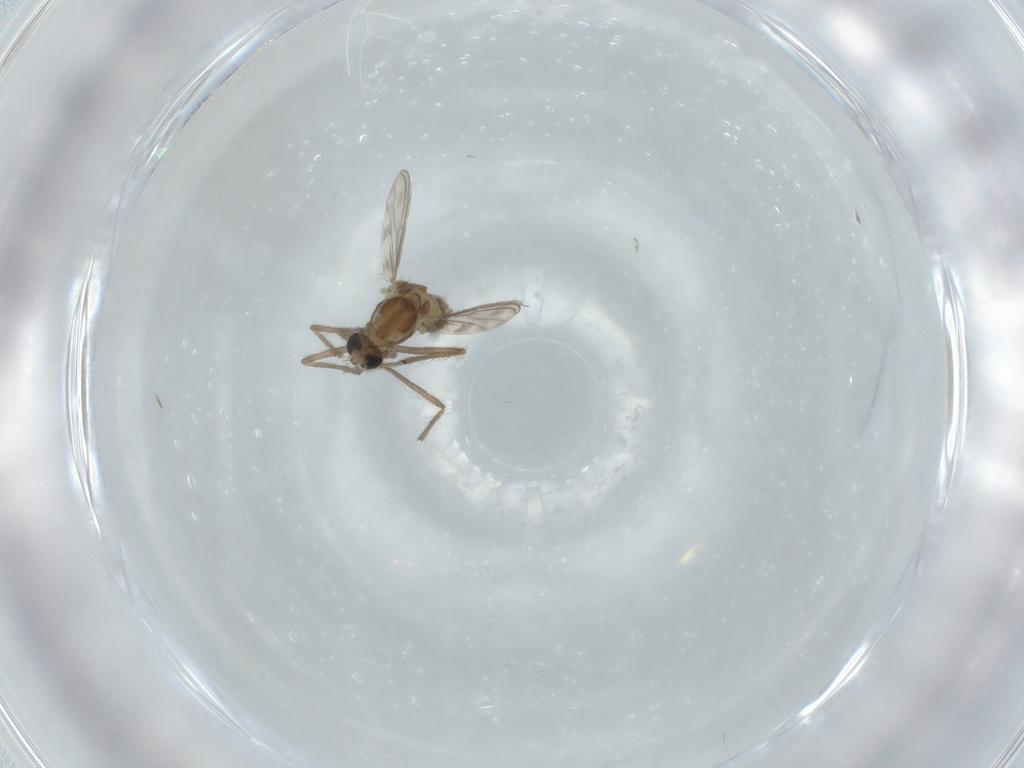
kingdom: Animalia
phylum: Arthropoda
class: Insecta
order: Diptera
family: Chironomidae
